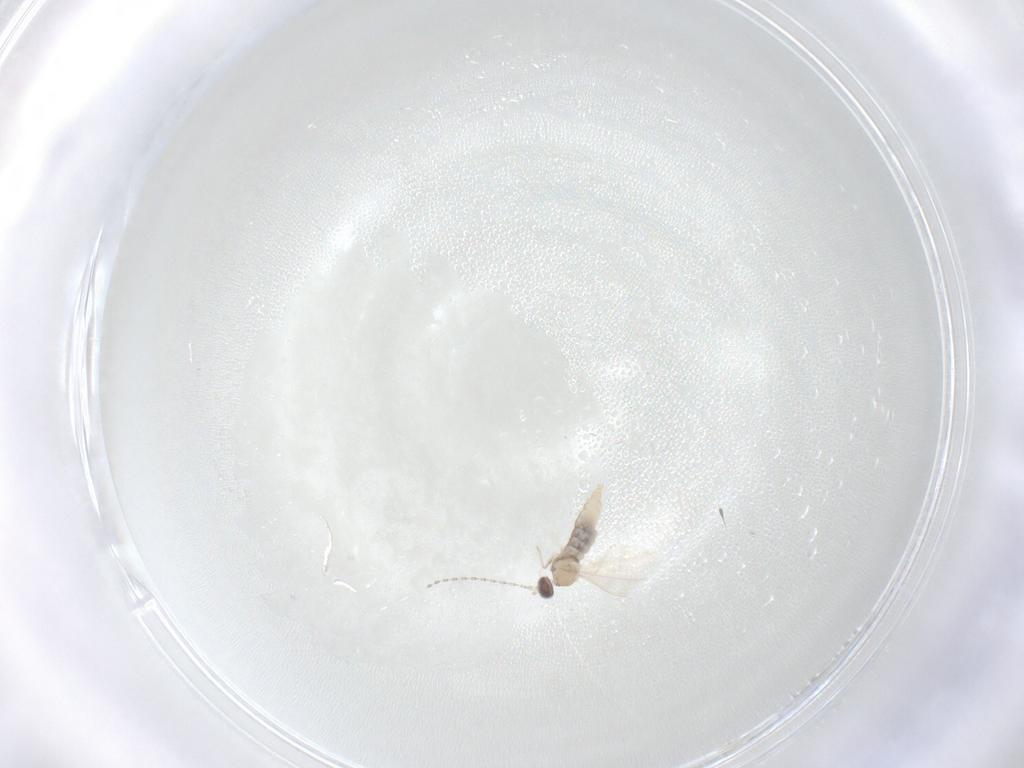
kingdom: Animalia
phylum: Arthropoda
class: Insecta
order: Diptera
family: Cecidomyiidae
